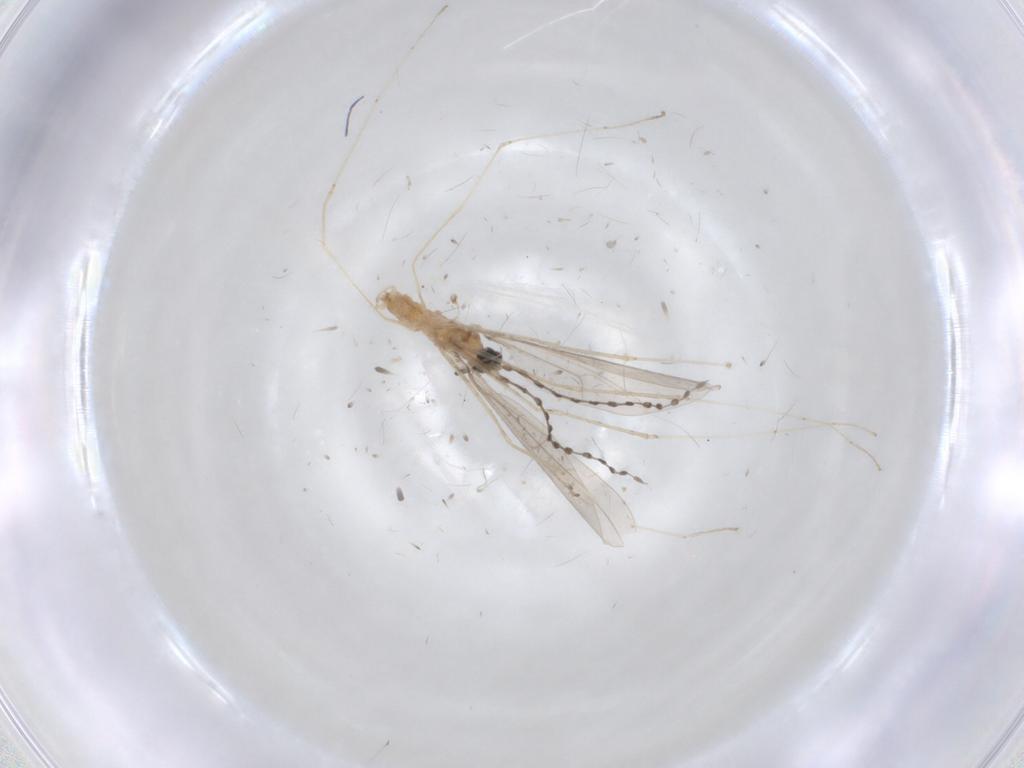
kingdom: Animalia
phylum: Arthropoda
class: Insecta
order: Diptera
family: Cecidomyiidae
